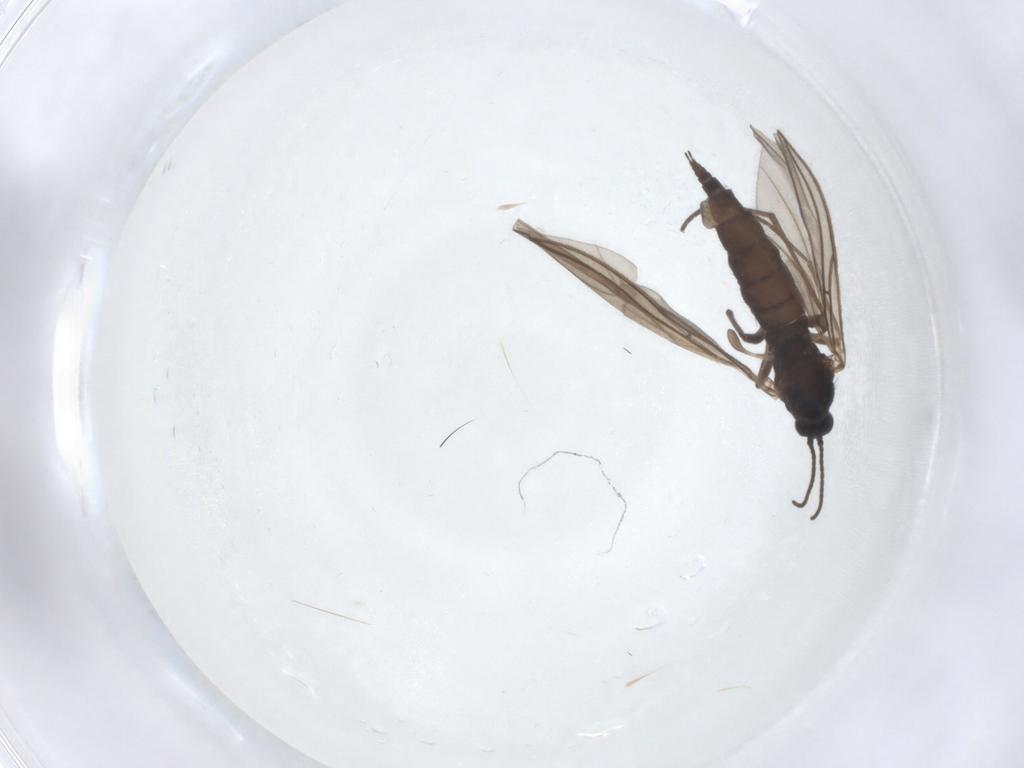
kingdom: Animalia
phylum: Arthropoda
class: Insecta
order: Diptera
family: Sciaridae
